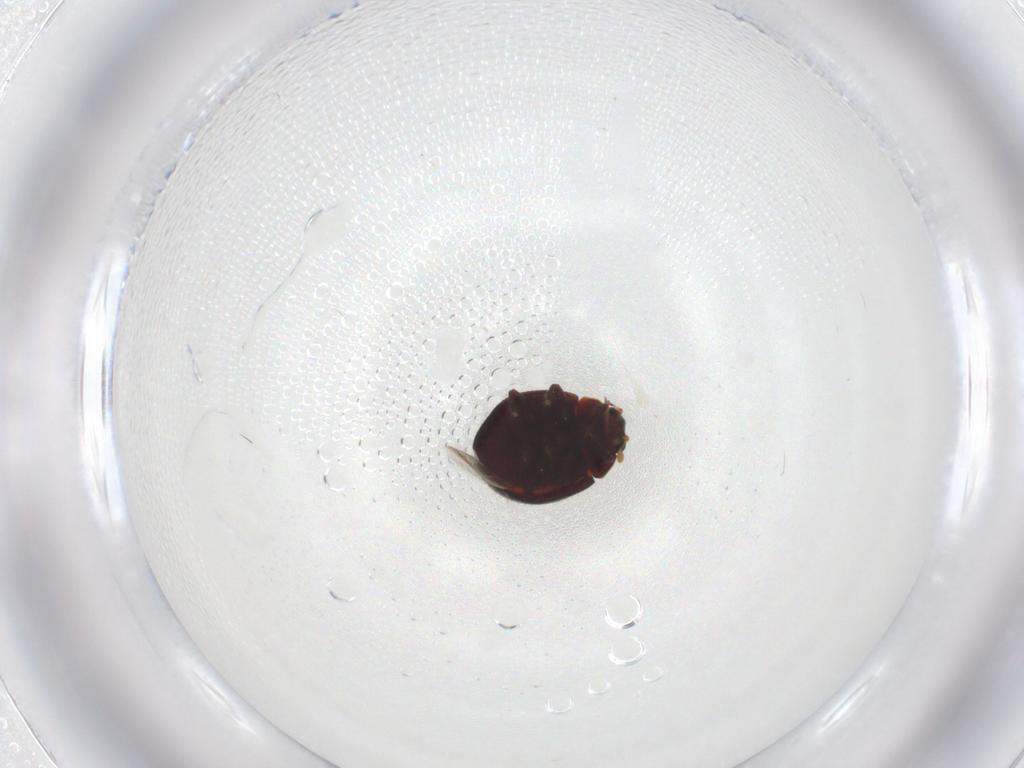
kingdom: Animalia
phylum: Arthropoda
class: Insecta
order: Coleoptera
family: Coccinellidae
